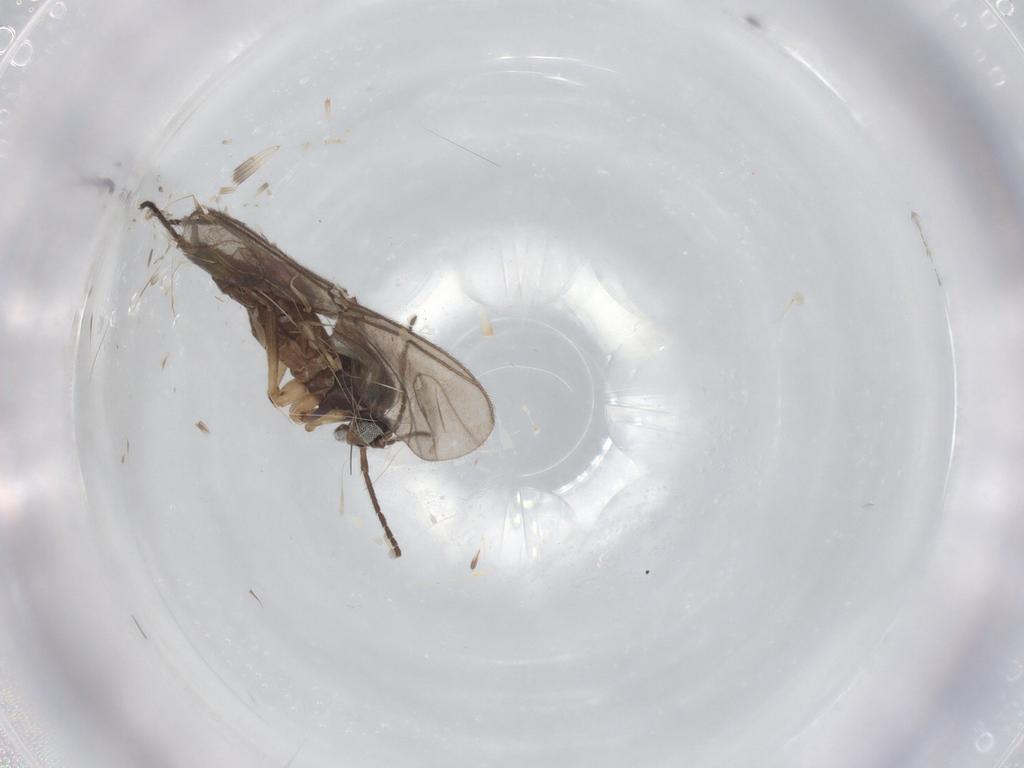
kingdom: Animalia
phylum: Arthropoda
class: Insecta
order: Diptera
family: Sciaridae
